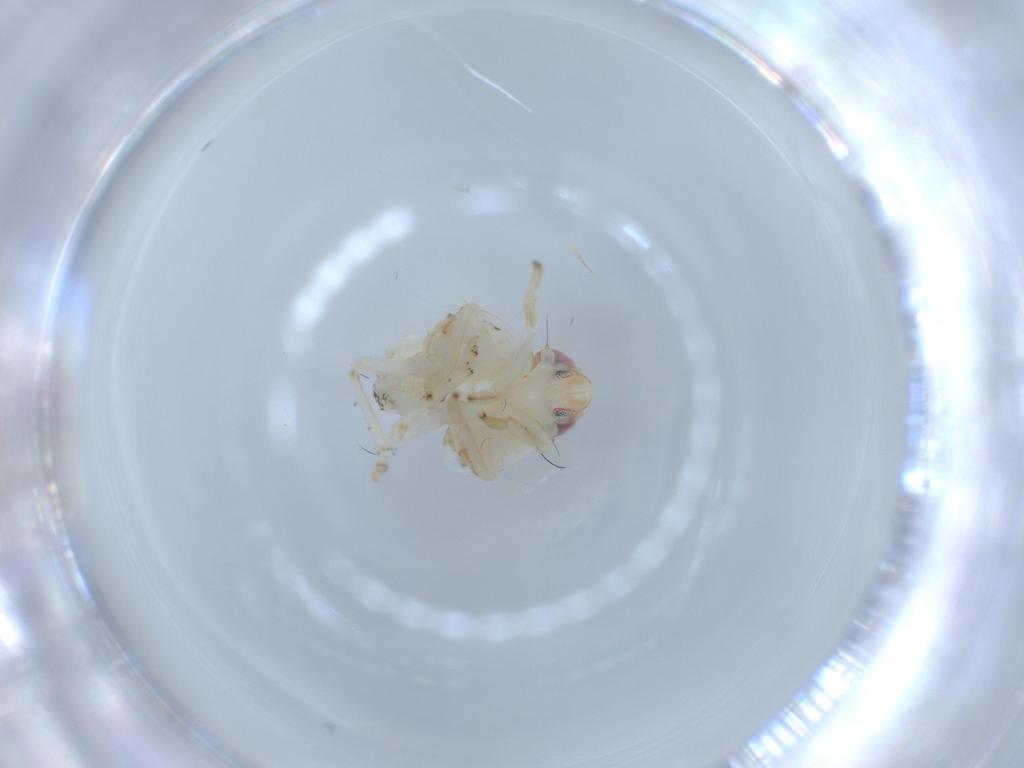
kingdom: Animalia
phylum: Arthropoda
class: Insecta
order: Hemiptera
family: Nogodinidae
